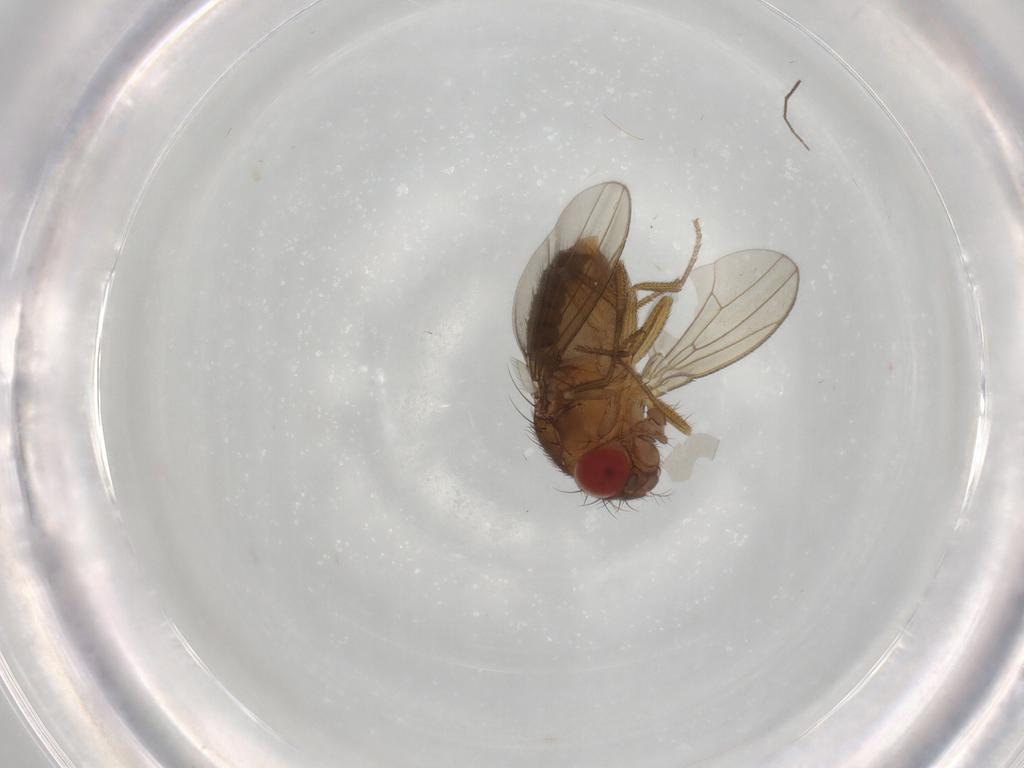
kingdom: Animalia
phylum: Arthropoda
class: Insecta
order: Diptera
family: Drosophilidae
